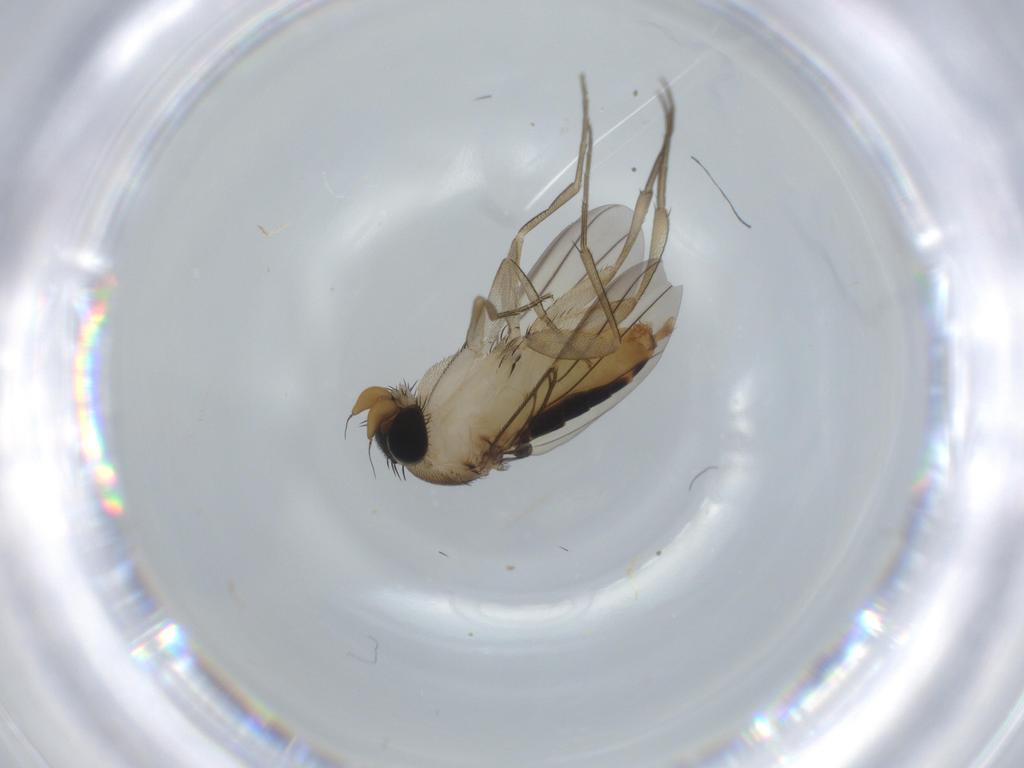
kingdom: Animalia
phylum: Arthropoda
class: Insecta
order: Diptera
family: Phoridae
